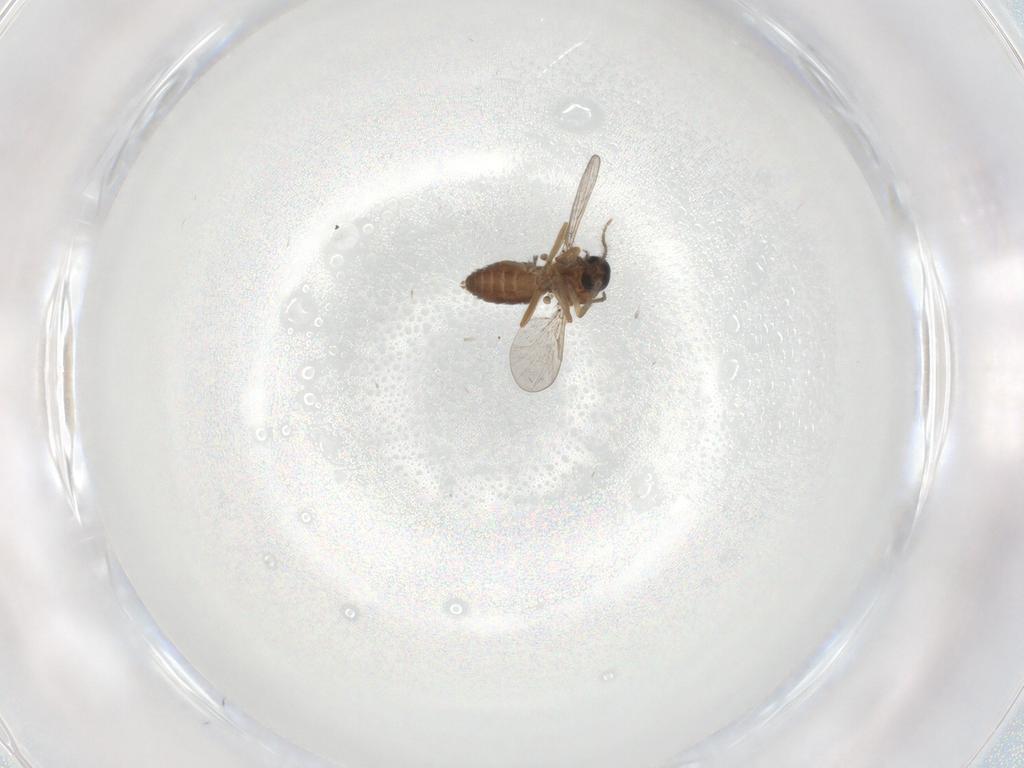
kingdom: Animalia
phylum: Arthropoda
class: Insecta
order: Diptera
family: Ceratopogonidae
